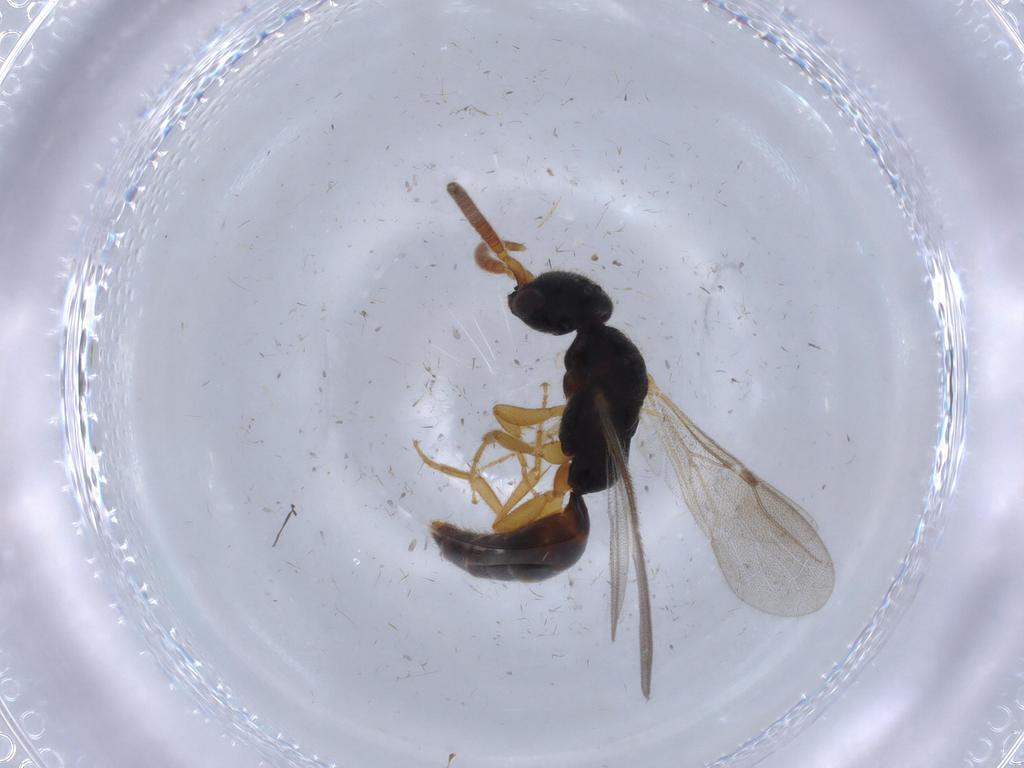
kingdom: Animalia
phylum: Arthropoda
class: Insecta
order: Hymenoptera
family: Bethylidae
